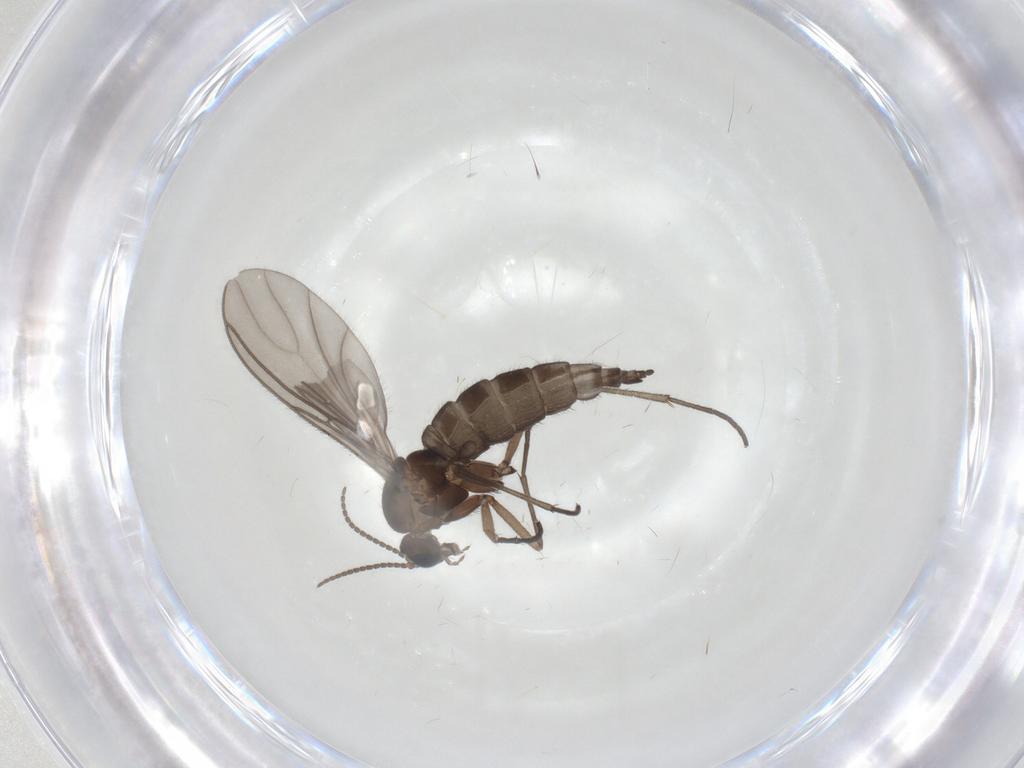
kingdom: Animalia
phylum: Arthropoda
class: Insecta
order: Diptera
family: Sciaridae
